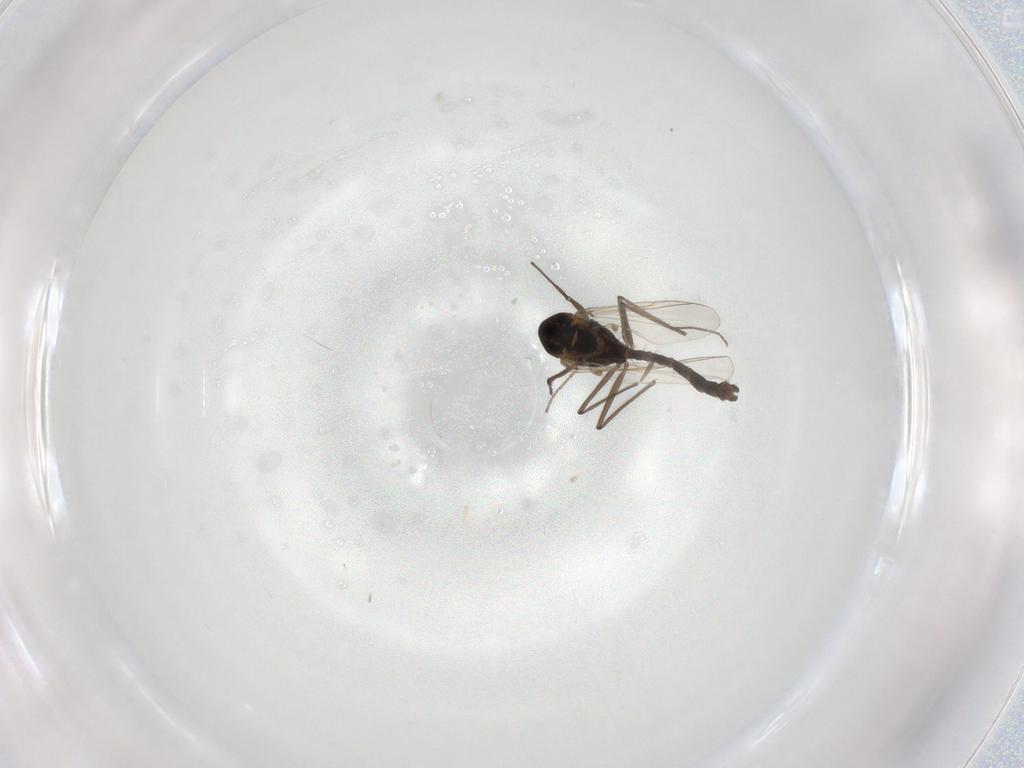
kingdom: Animalia
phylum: Arthropoda
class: Insecta
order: Diptera
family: Chironomidae
